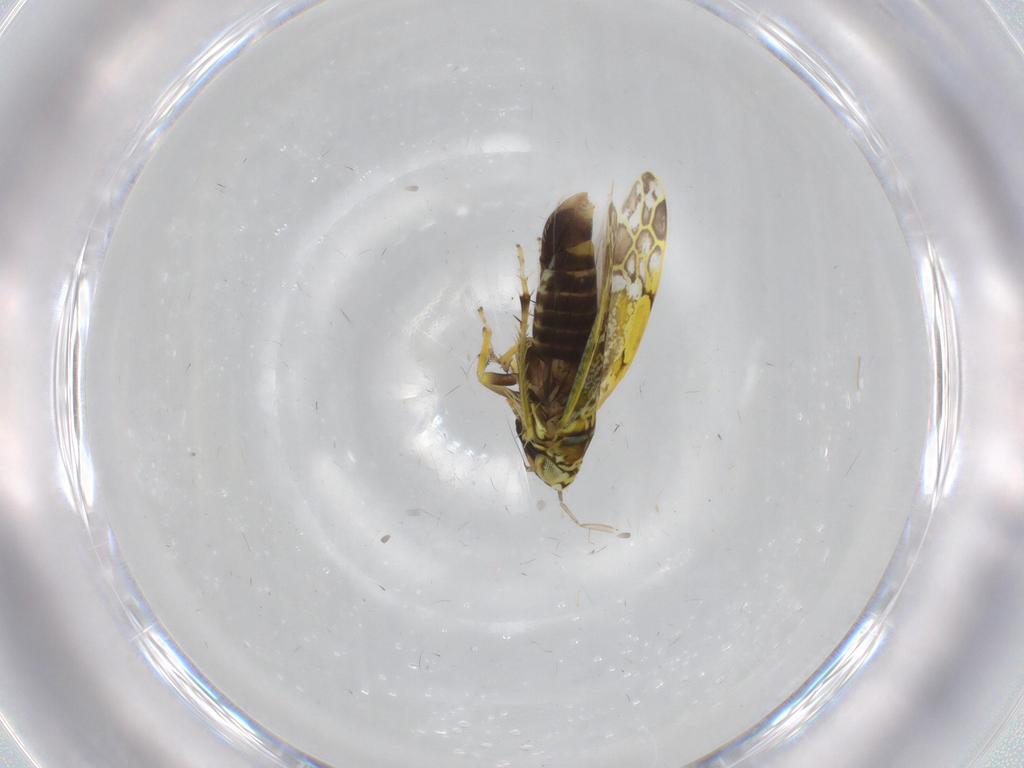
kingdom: Animalia
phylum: Arthropoda
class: Insecta
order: Hemiptera
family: Cicadellidae
